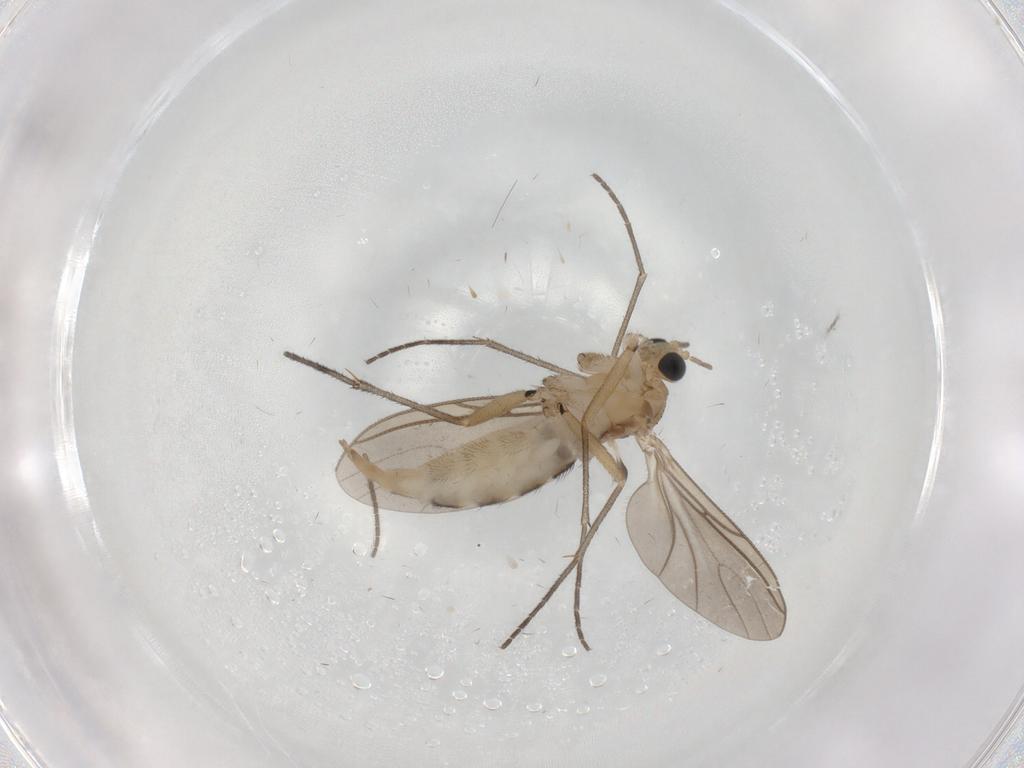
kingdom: Animalia
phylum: Arthropoda
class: Insecta
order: Diptera
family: Sciaridae
